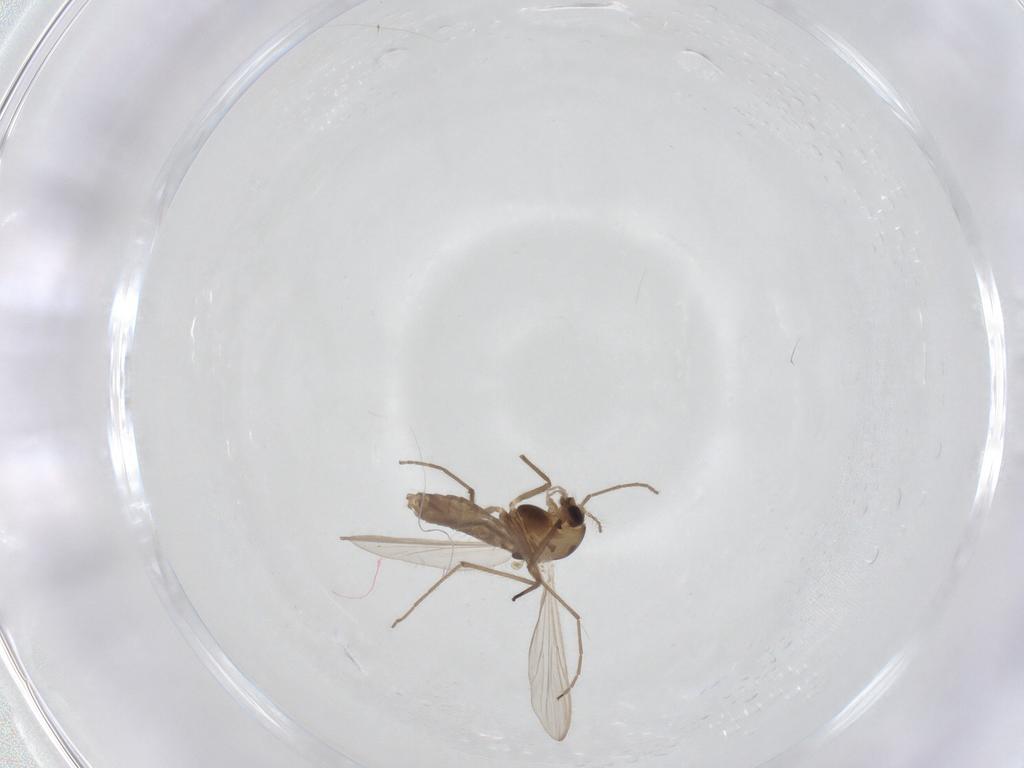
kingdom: Animalia
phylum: Arthropoda
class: Insecta
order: Diptera
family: Chironomidae
